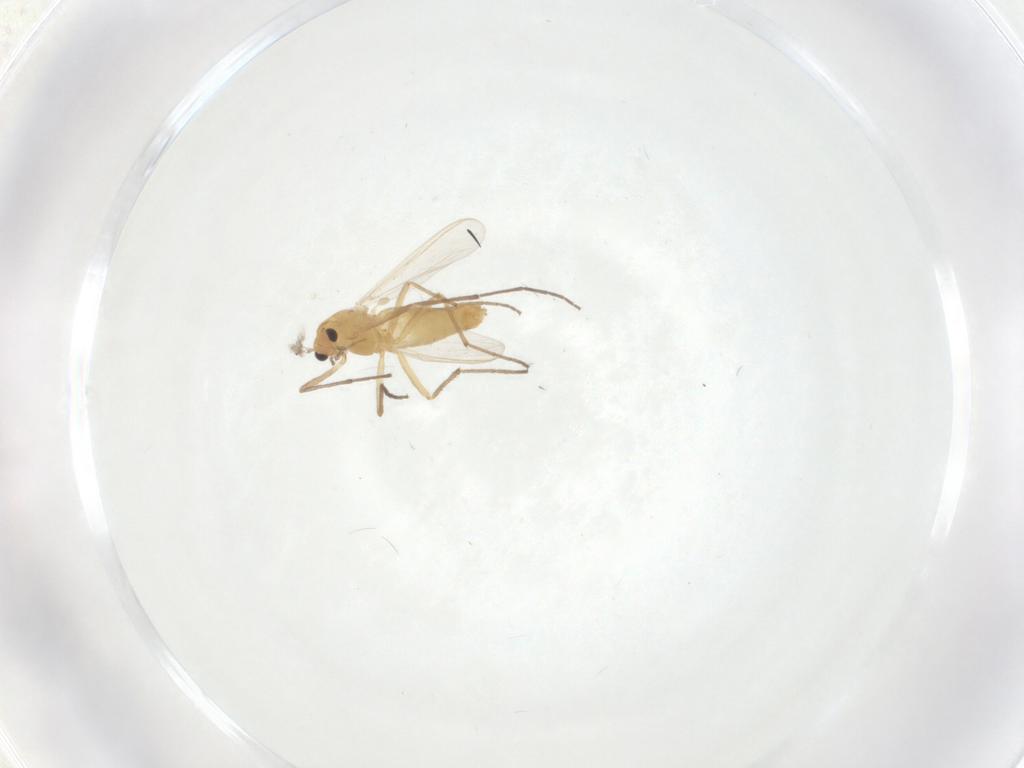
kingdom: Animalia
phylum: Arthropoda
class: Insecta
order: Diptera
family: Chironomidae
